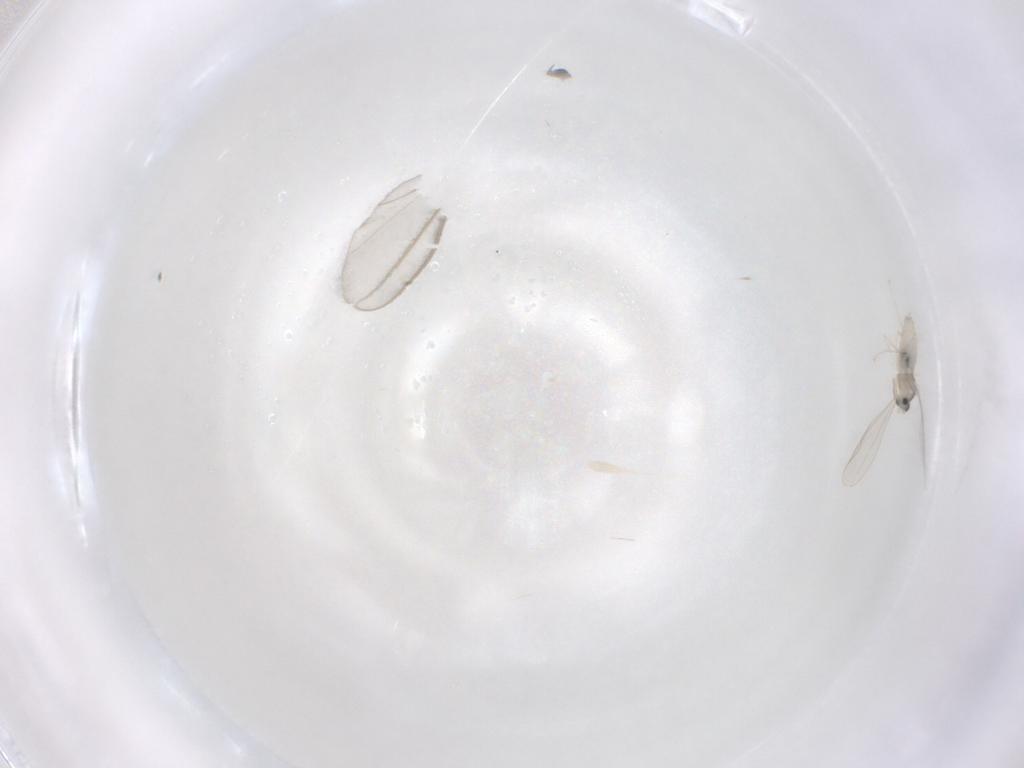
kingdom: Animalia
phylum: Arthropoda
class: Insecta
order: Diptera
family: Cecidomyiidae
